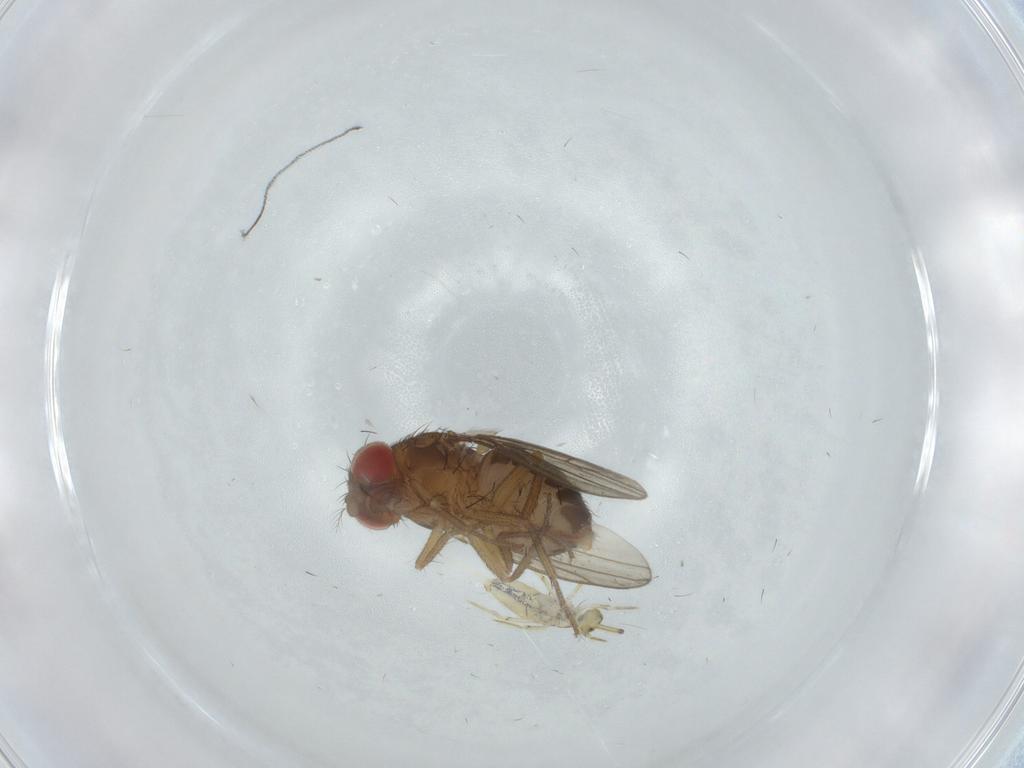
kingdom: Animalia
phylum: Arthropoda
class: Insecta
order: Diptera
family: Drosophilidae
